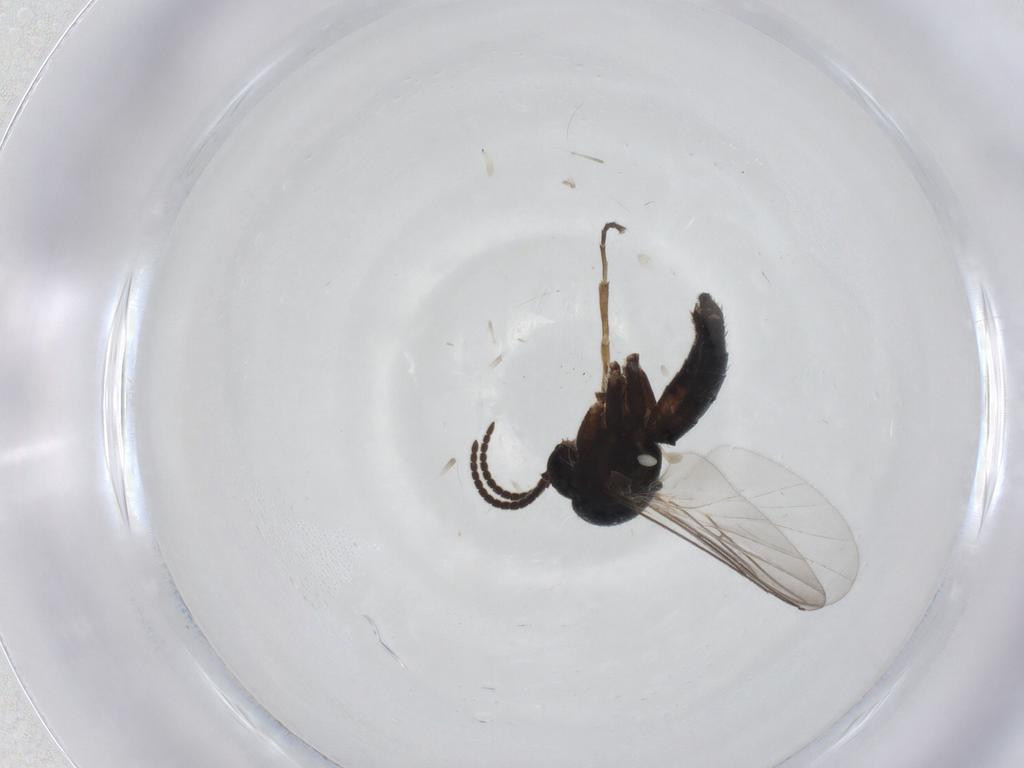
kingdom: Animalia
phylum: Arthropoda
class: Insecta
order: Diptera
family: Mycetophilidae
